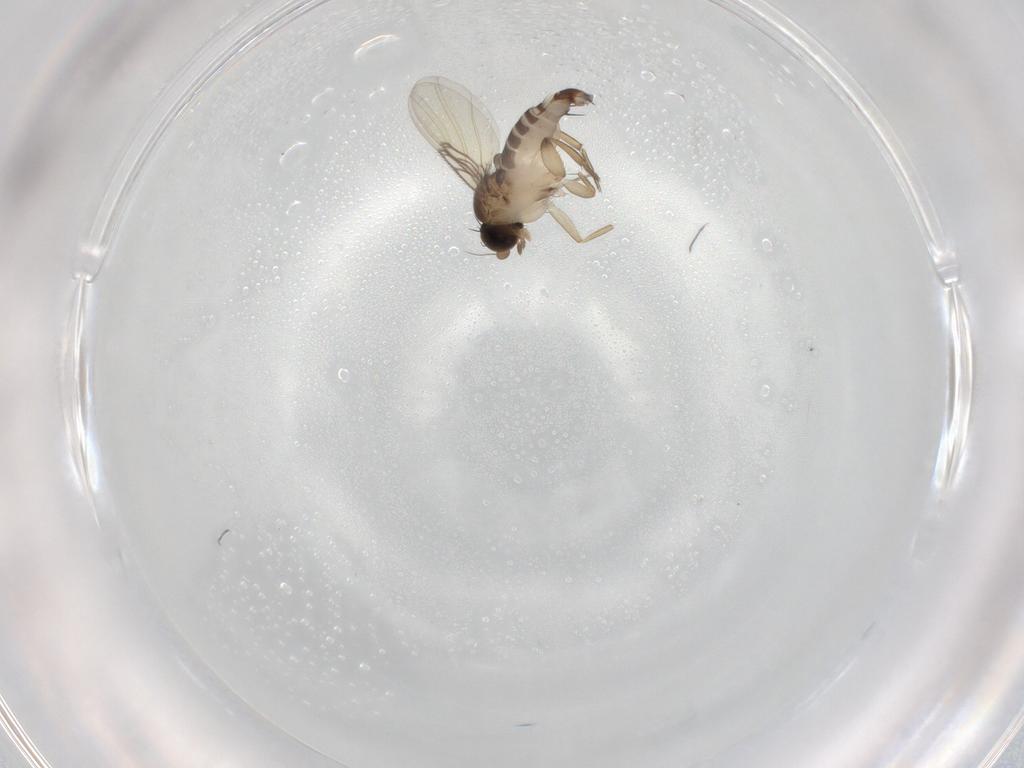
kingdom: Animalia
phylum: Arthropoda
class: Insecta
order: Diptera
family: Phoridae
